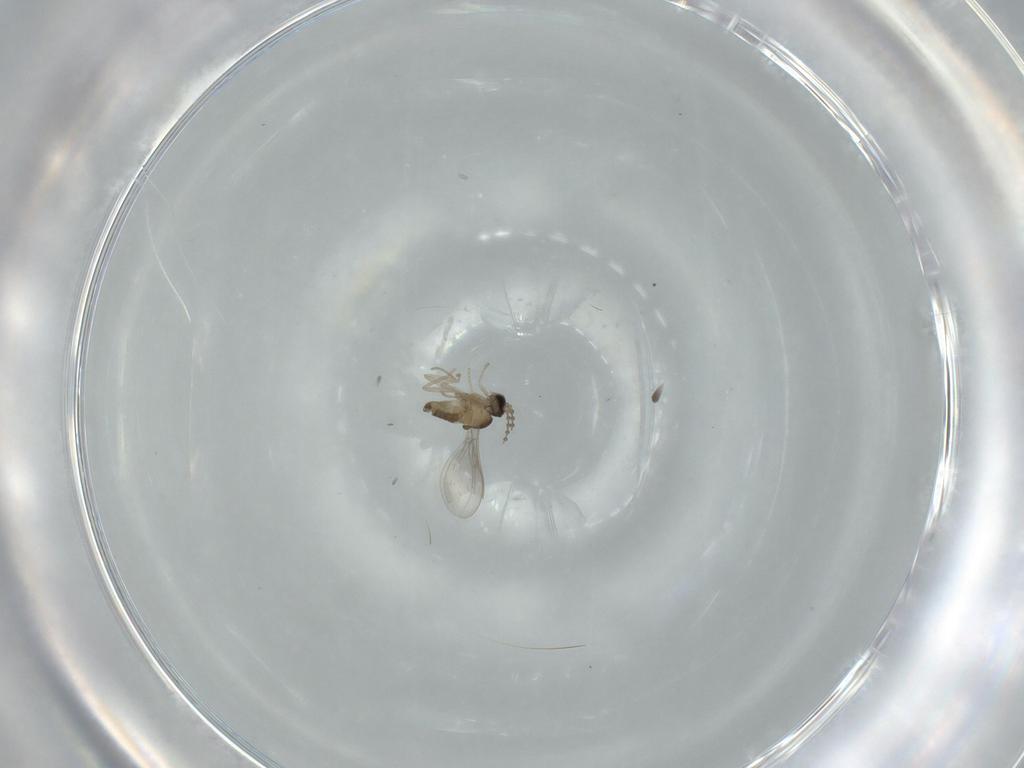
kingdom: Animalia
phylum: Arthropoda
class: Insecta
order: Diptera
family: Cecidomyiidae
